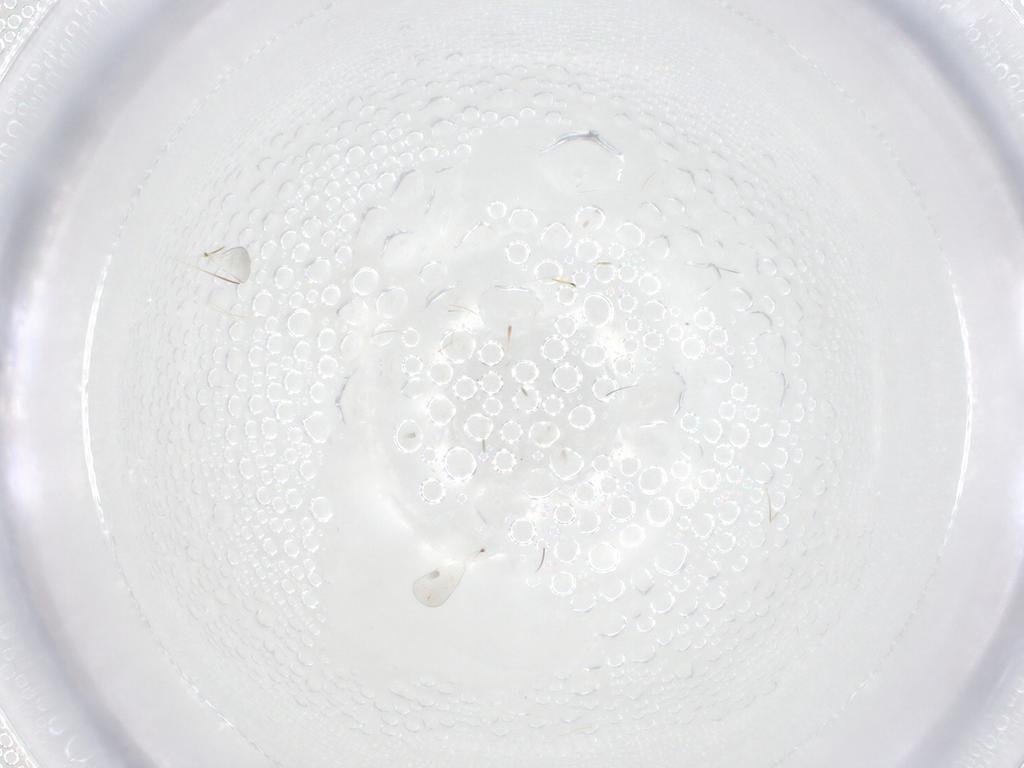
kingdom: Animalia
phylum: Arthropoda
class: Insecta
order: Hymenoptera
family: Platygastridae
